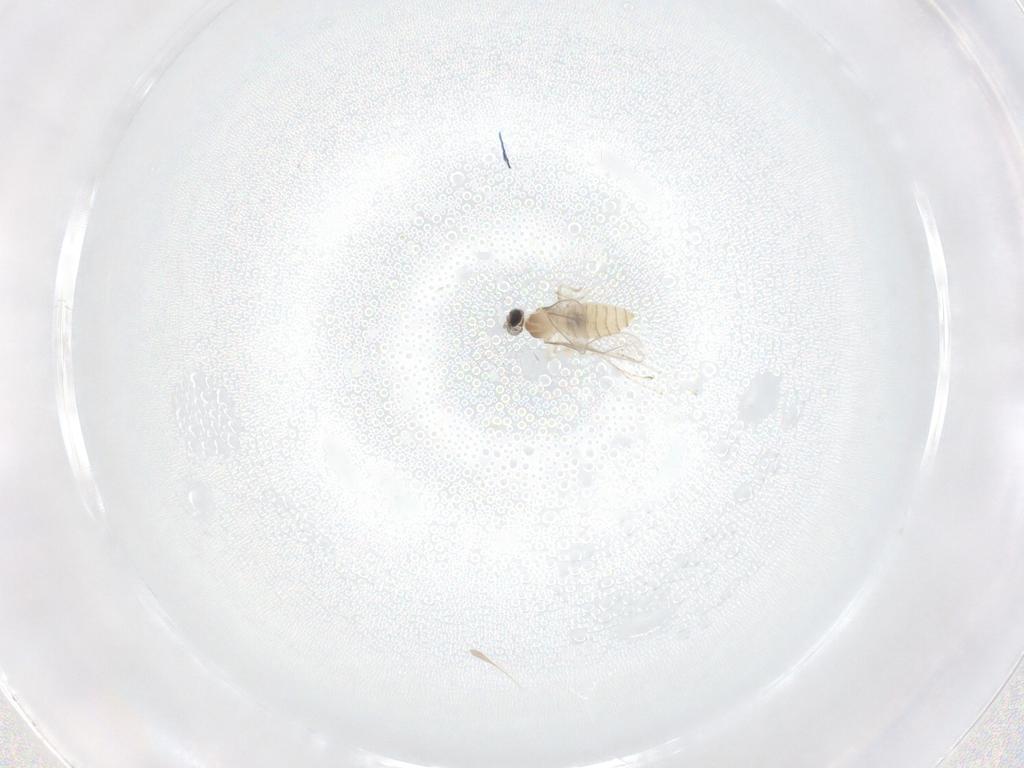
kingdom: Animalia
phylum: Arthropoda
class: Insecta
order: Diptera
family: Cecidomyiidae
